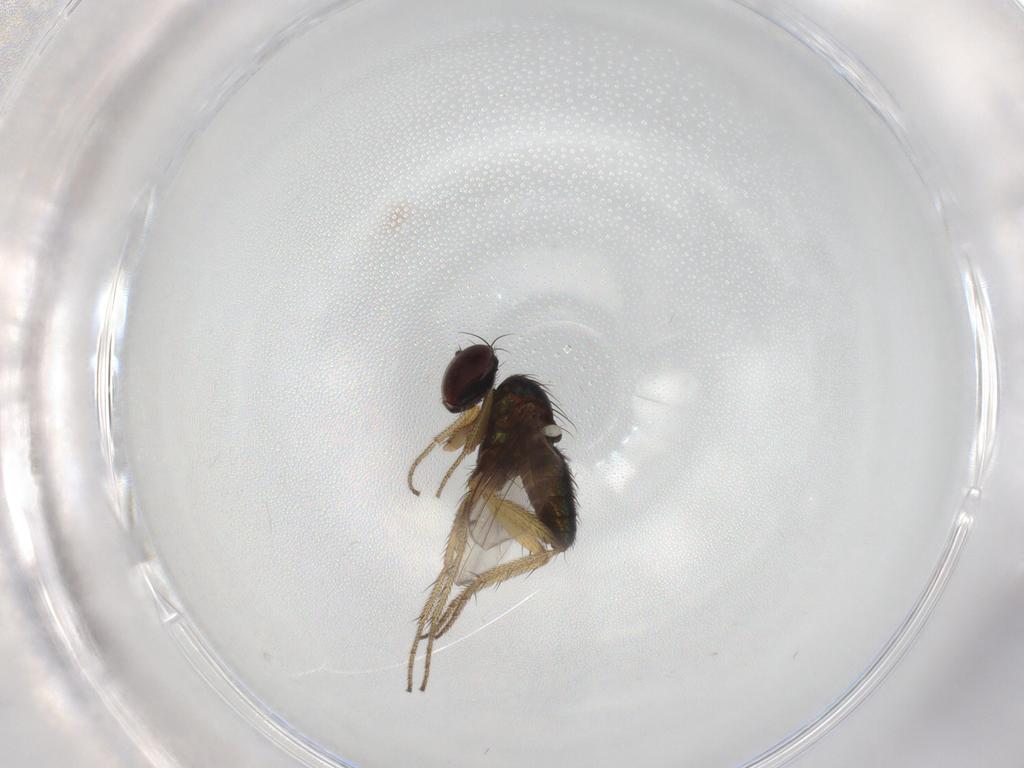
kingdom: Animalia
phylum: Arthropoda
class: Insecta
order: Diptera
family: Dolichopodidae
